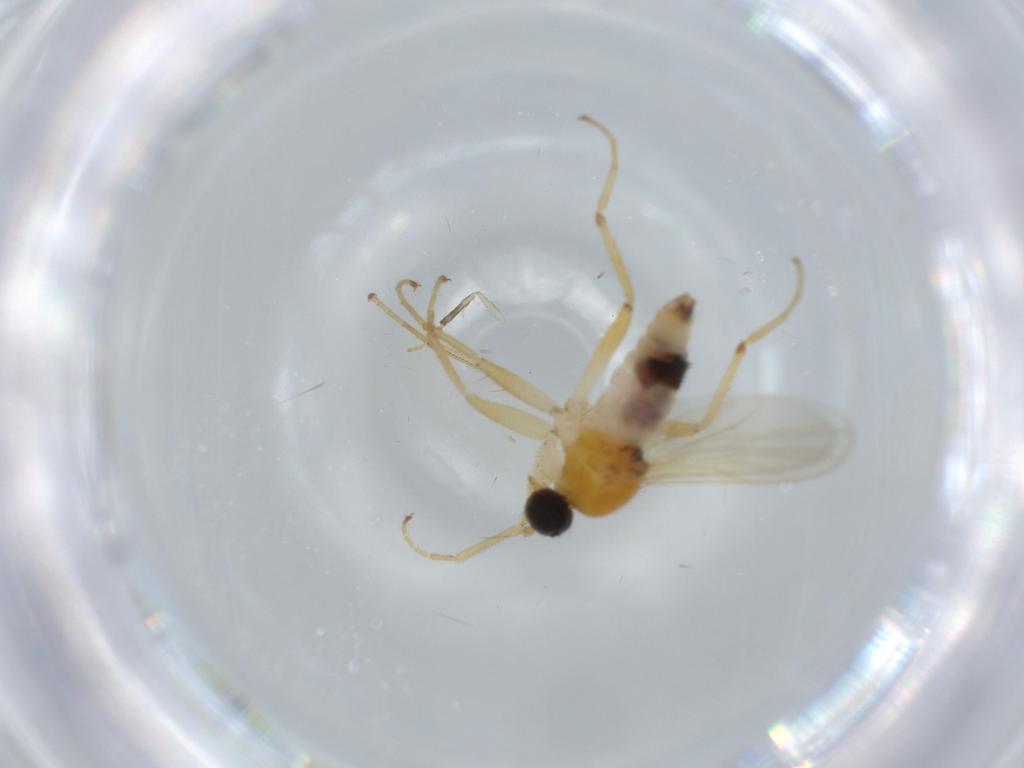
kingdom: Animalia
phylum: Arthropoda
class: Insecta
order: Diptera
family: Hybotidae
